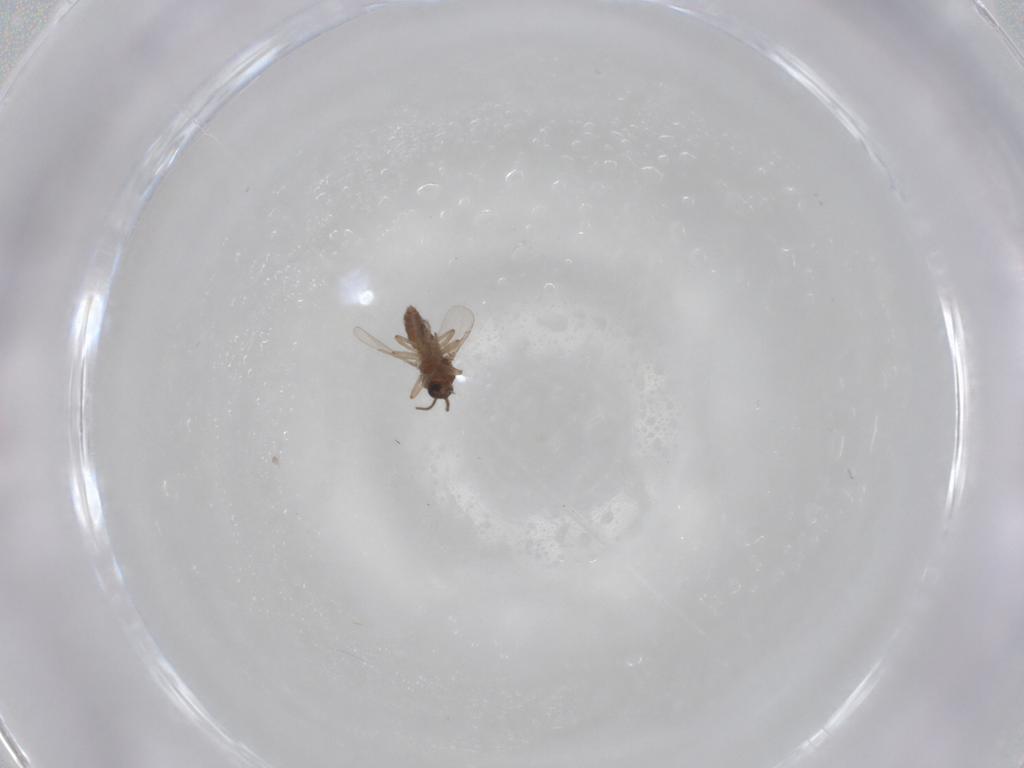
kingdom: Animalia
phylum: Arthropoda
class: Insecta
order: Diptera
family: Ceratopogonidae
